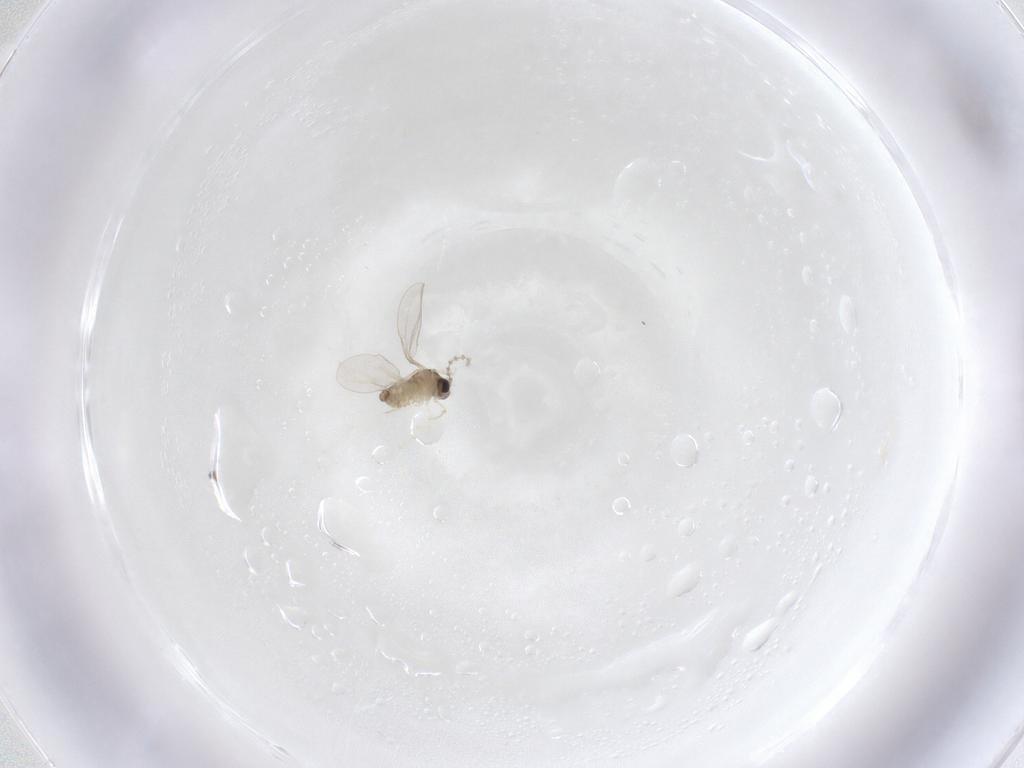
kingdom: Animalia
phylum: Arthropoda
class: Insecta
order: Diptera
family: Cecidomyiidae
